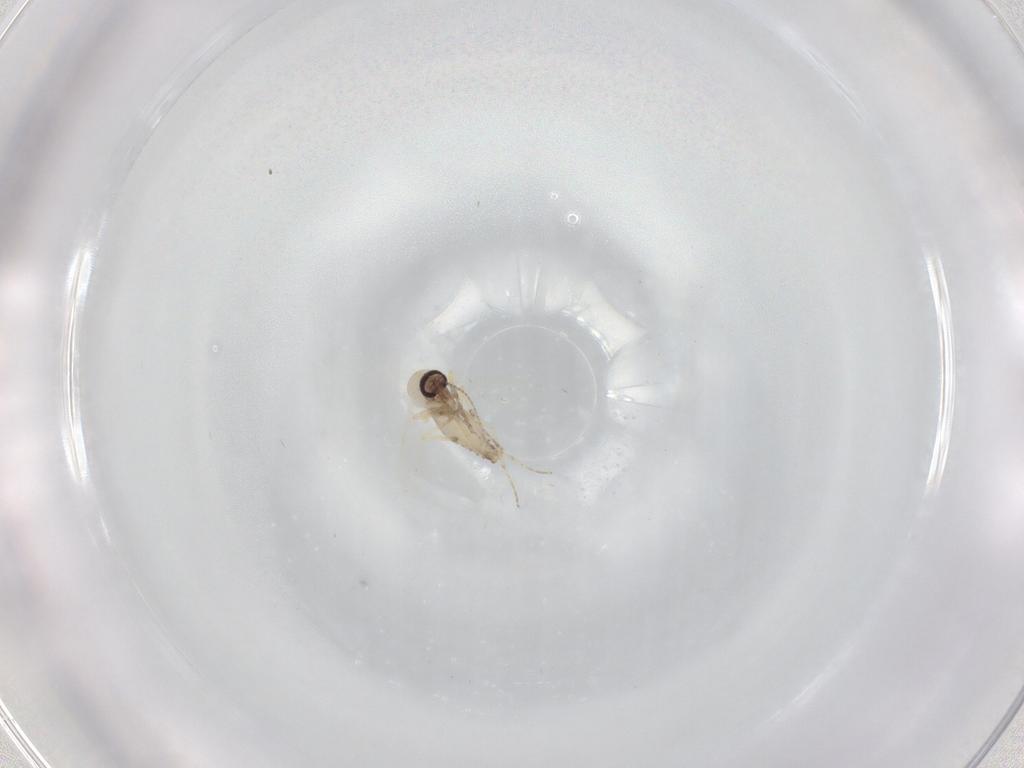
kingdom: Animalia
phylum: Arthropoda
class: Insecta
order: Diptera
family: Ceratopogonidae
